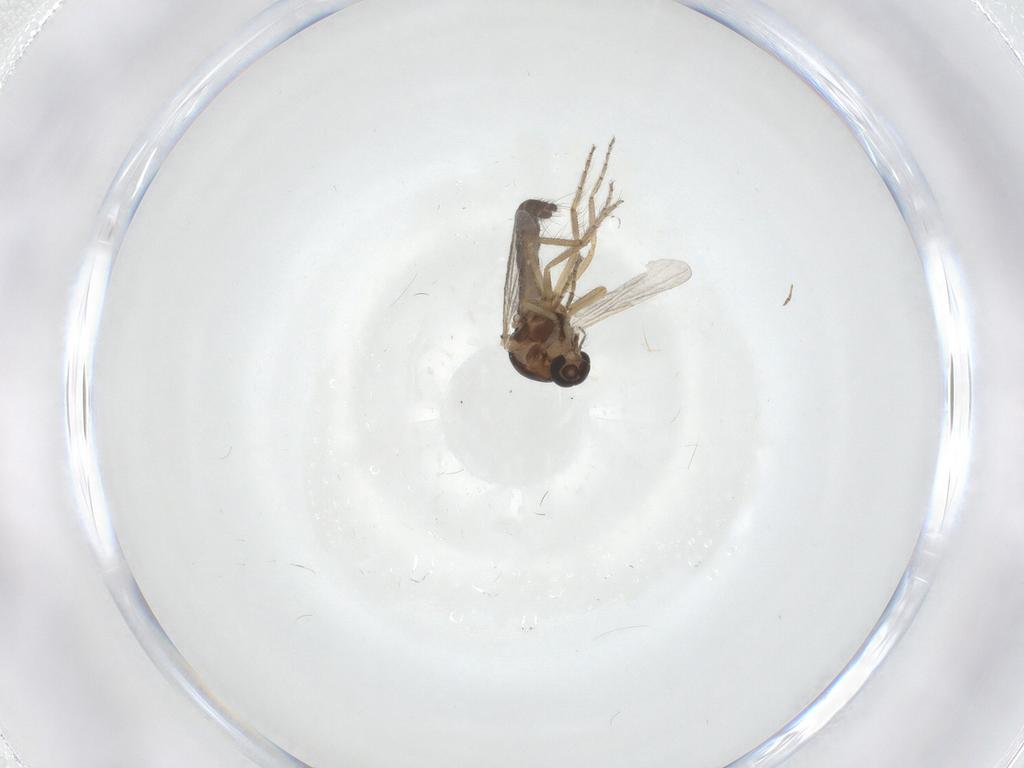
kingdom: Animalia
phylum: Arthropoda
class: Insecta
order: Diptera
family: Ceratopogonidae
